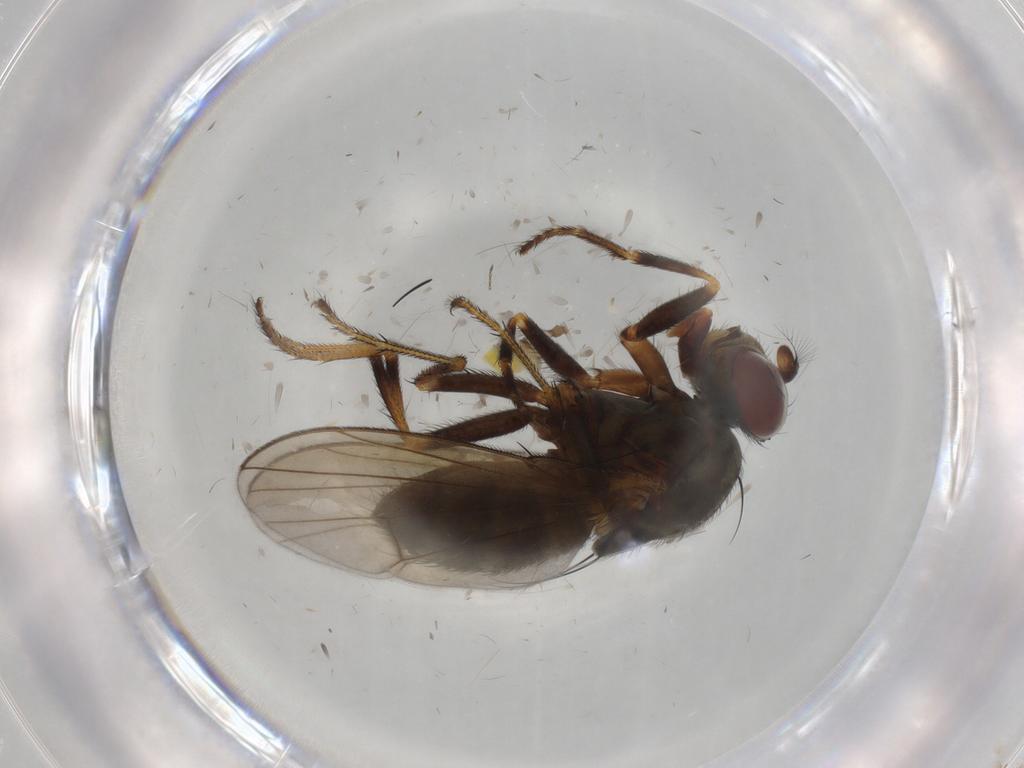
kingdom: Animalia
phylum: Arthropoda
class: Insecta
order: Diptera
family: Ephydridae
